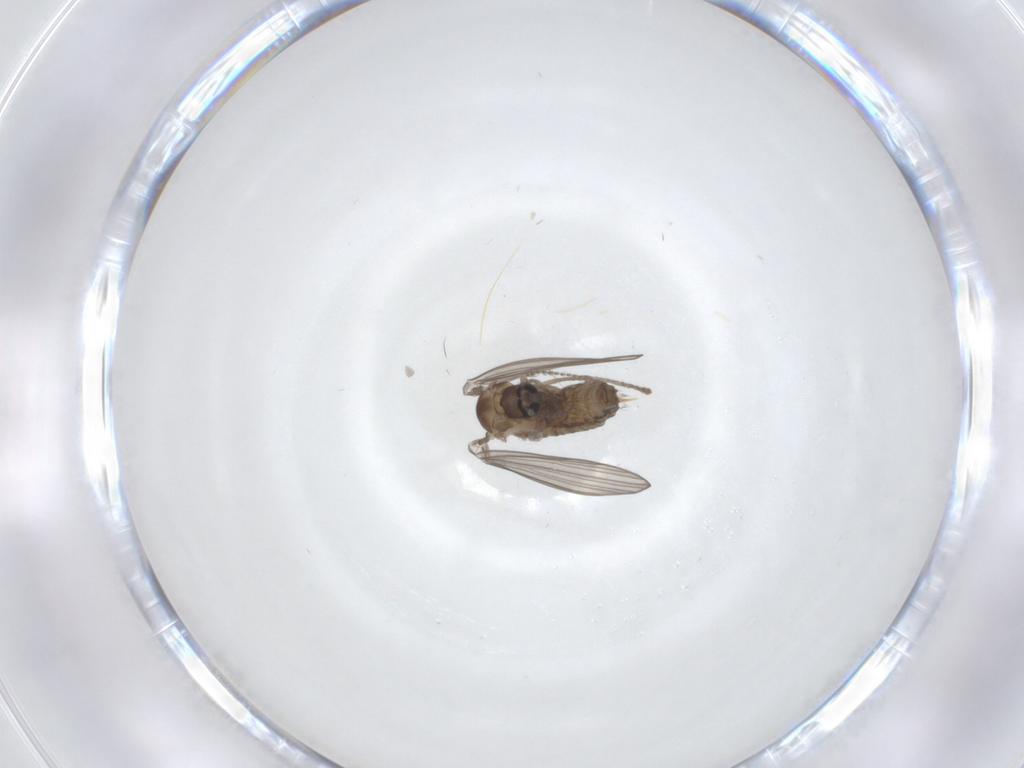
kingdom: Animalia
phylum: Arthropoda
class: Insecta
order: Diptera
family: Psychodidae
